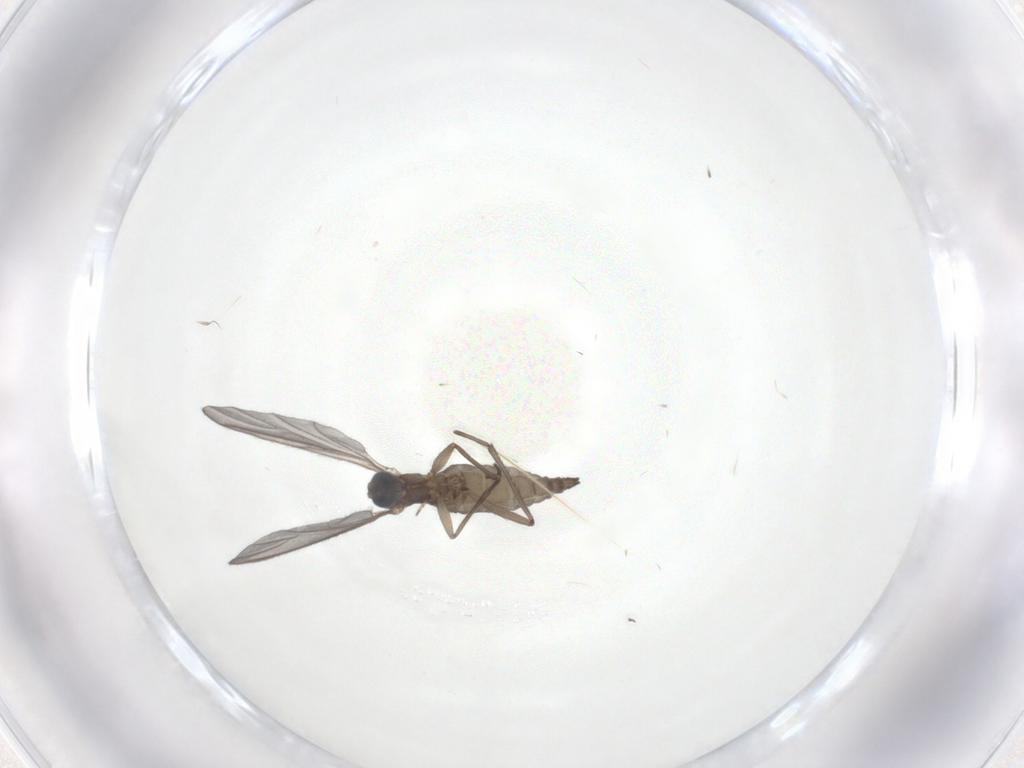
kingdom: Animalia
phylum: Arthropoda
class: Insecta
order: Diptera
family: Sciaridae
